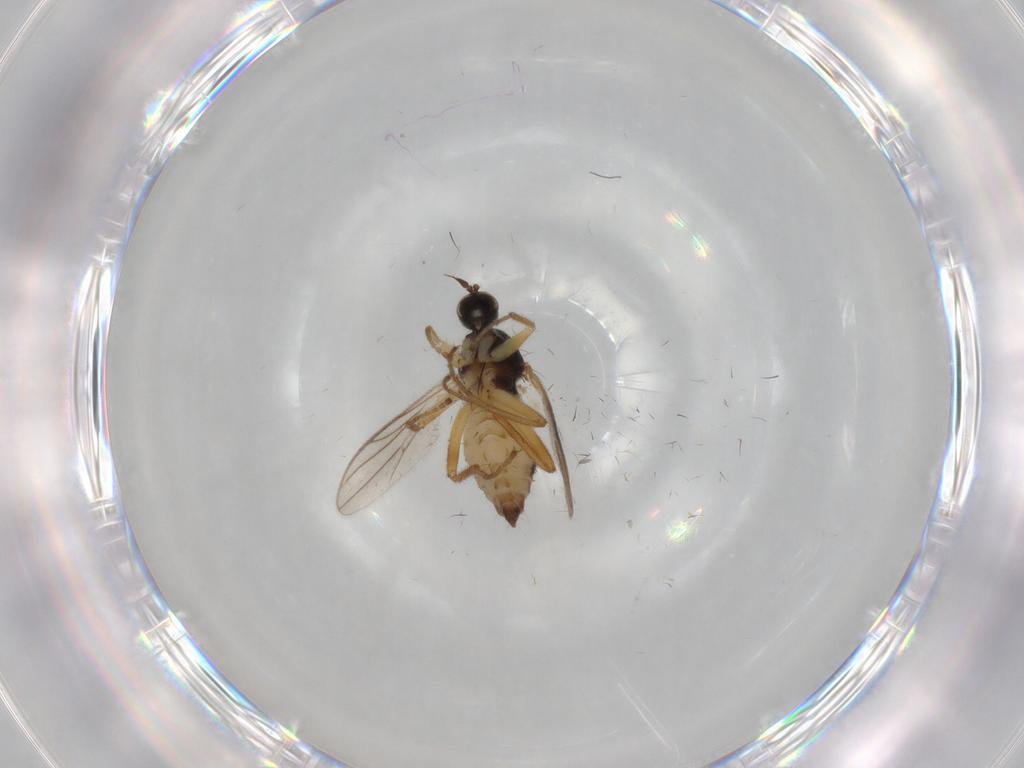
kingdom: Animalia
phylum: Arthropoda
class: Insecta
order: Diptera
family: Hybotidae
